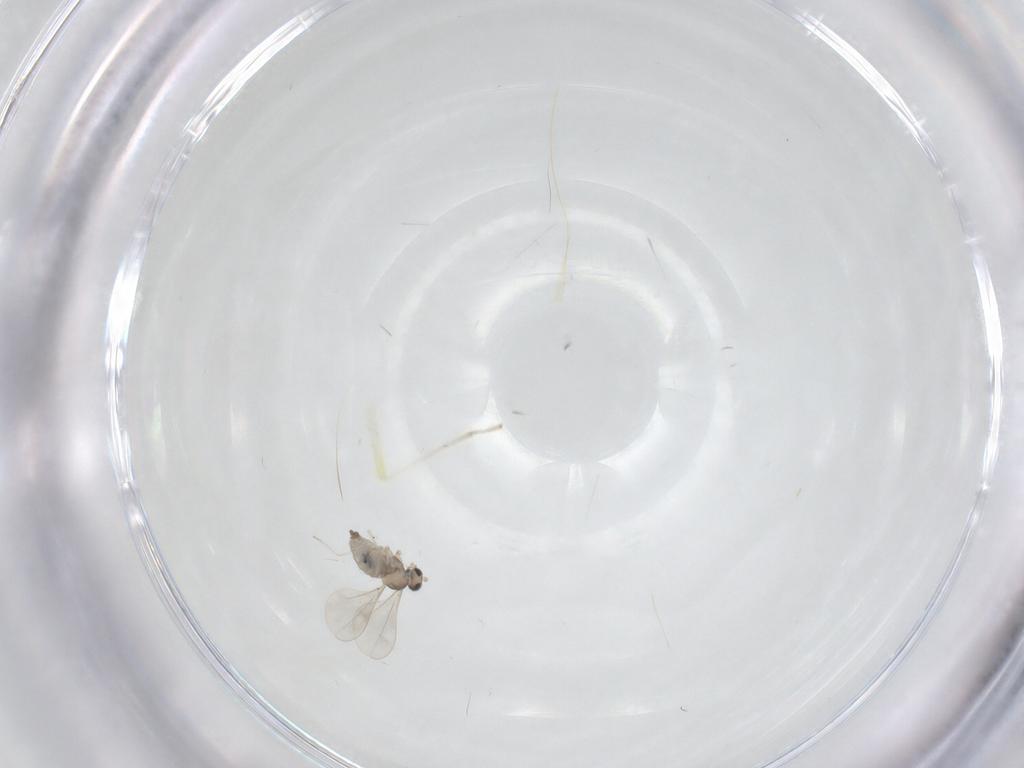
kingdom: Animalia
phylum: Arthropoda
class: Insecta
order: Diptera
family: Cecidomyiidae
